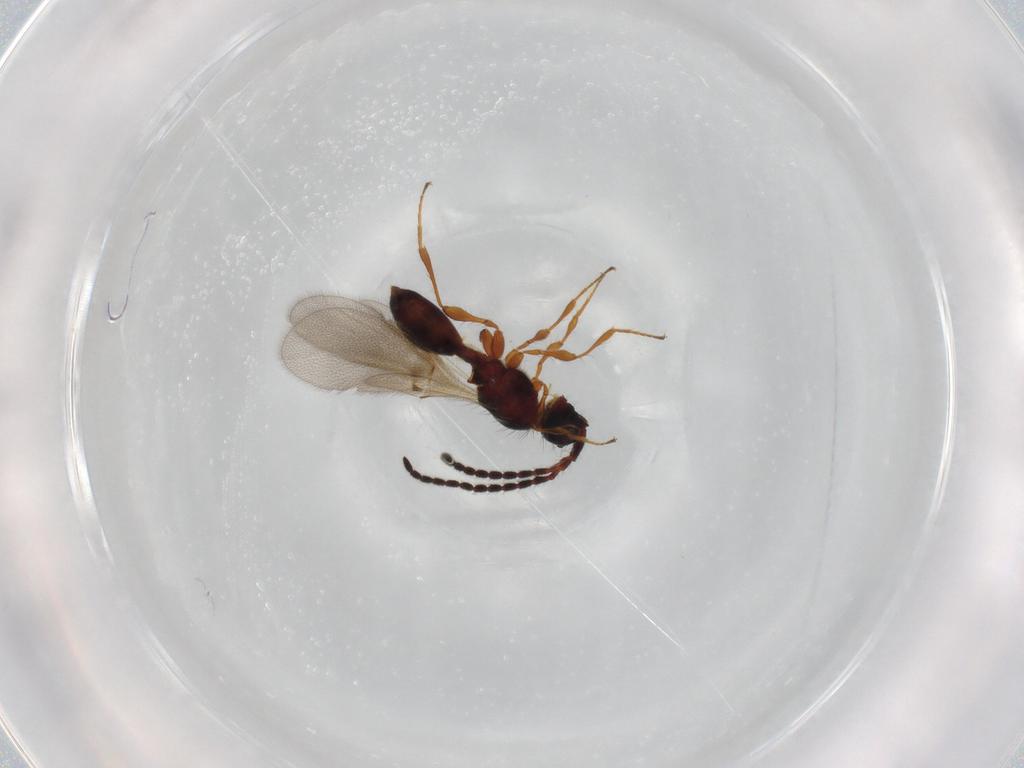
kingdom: Animalia
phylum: Arthropoda
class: Insecta
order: Hymenoptera
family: Diapriidae
